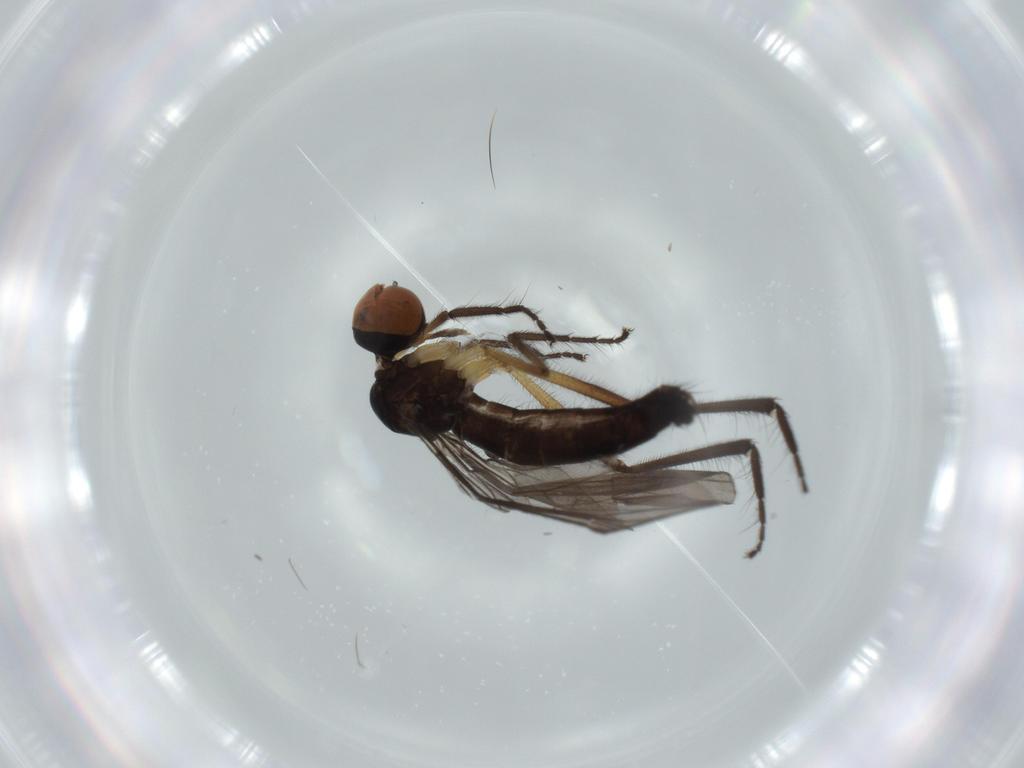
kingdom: Animalia
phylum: Arthropoda
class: Insecta
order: Diptera
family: Empididae
